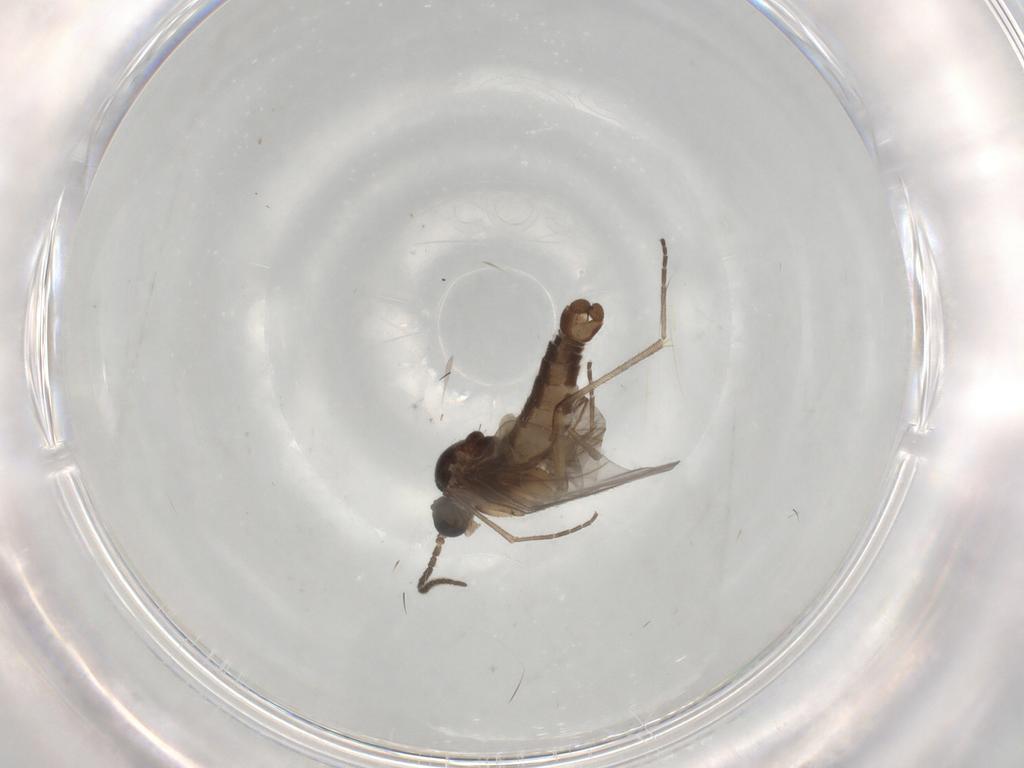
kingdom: Animalia
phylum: Arthropoda
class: Insecta
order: Diptera
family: Sciaridae
